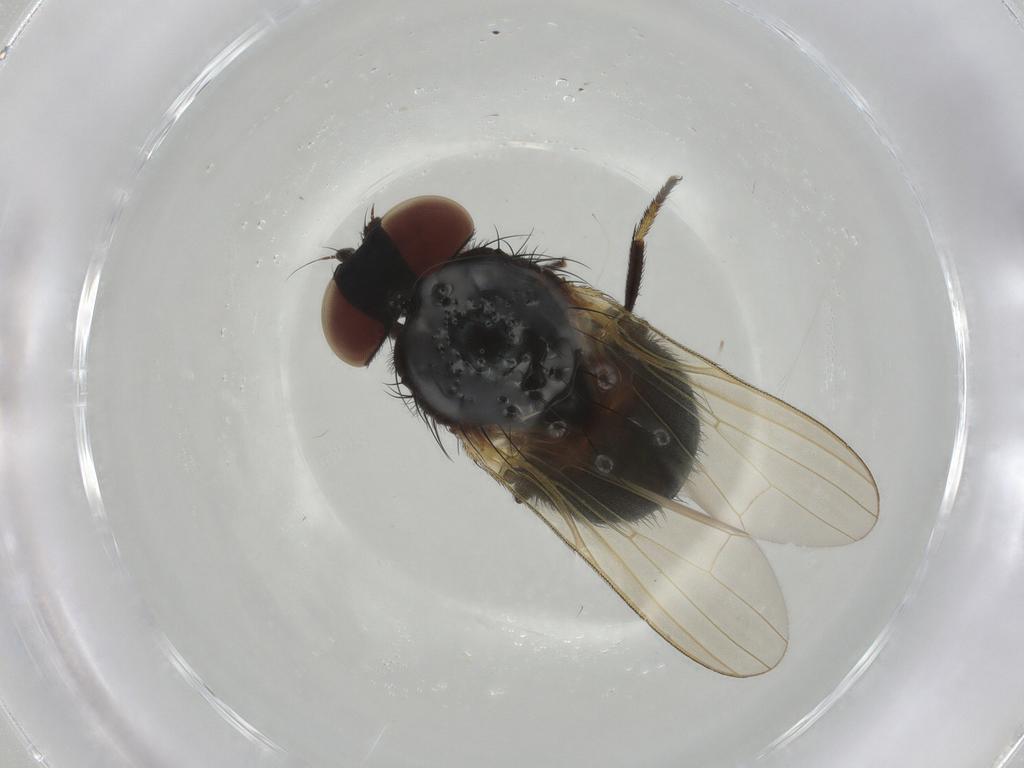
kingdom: Animalia
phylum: Arthropoda
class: Insecta
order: Diptera
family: Lonchaeidae
